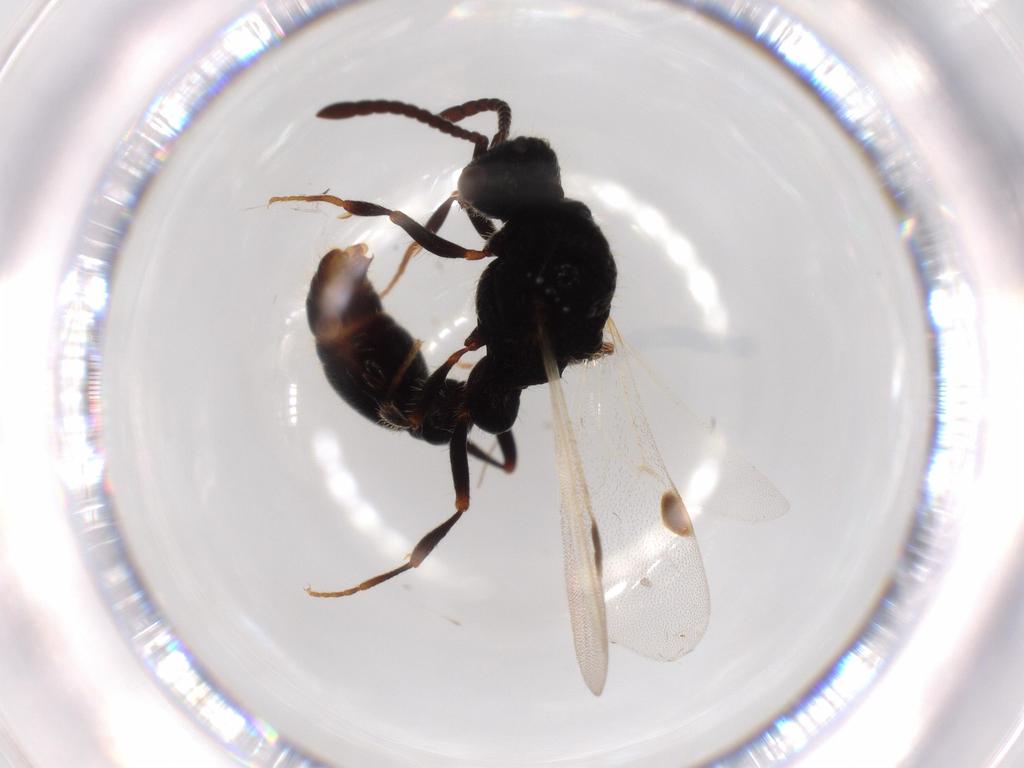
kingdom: Animalia
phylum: Arthropoda
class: Insecta
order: Hymenoptera
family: Formicidae
